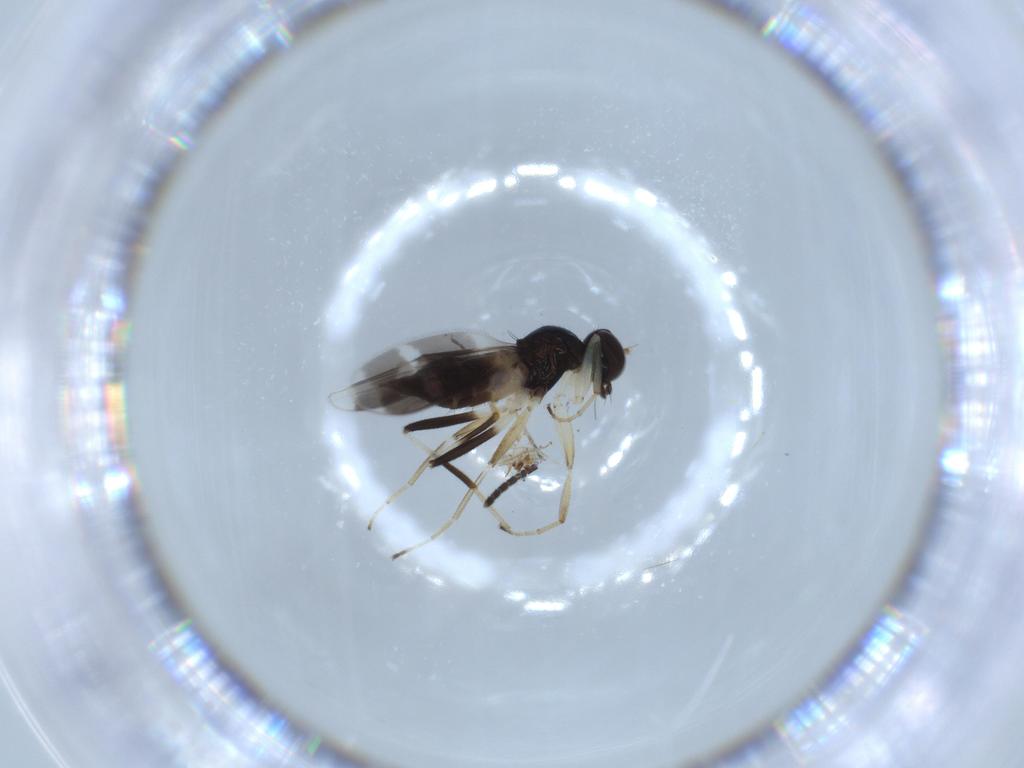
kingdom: Animalia
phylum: Arthropoda
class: Insecta
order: Diptera
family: Hybotidae
